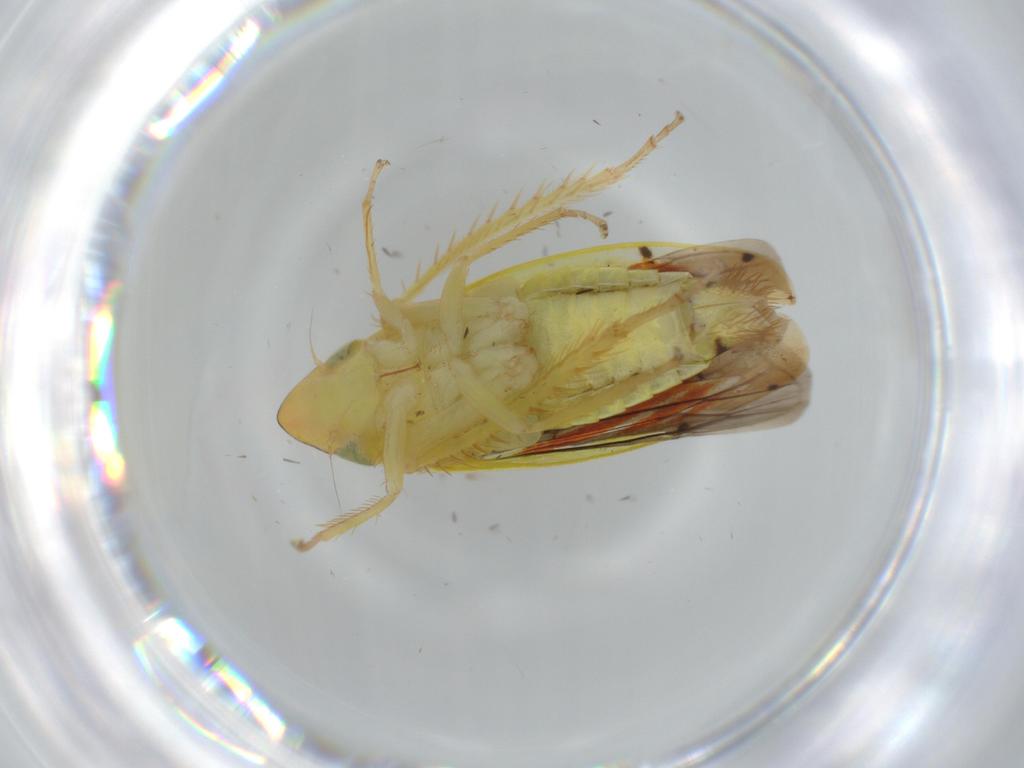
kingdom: Animalia
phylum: Arthropoda
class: Insecta
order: Hemiptera
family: Cicadellidae
